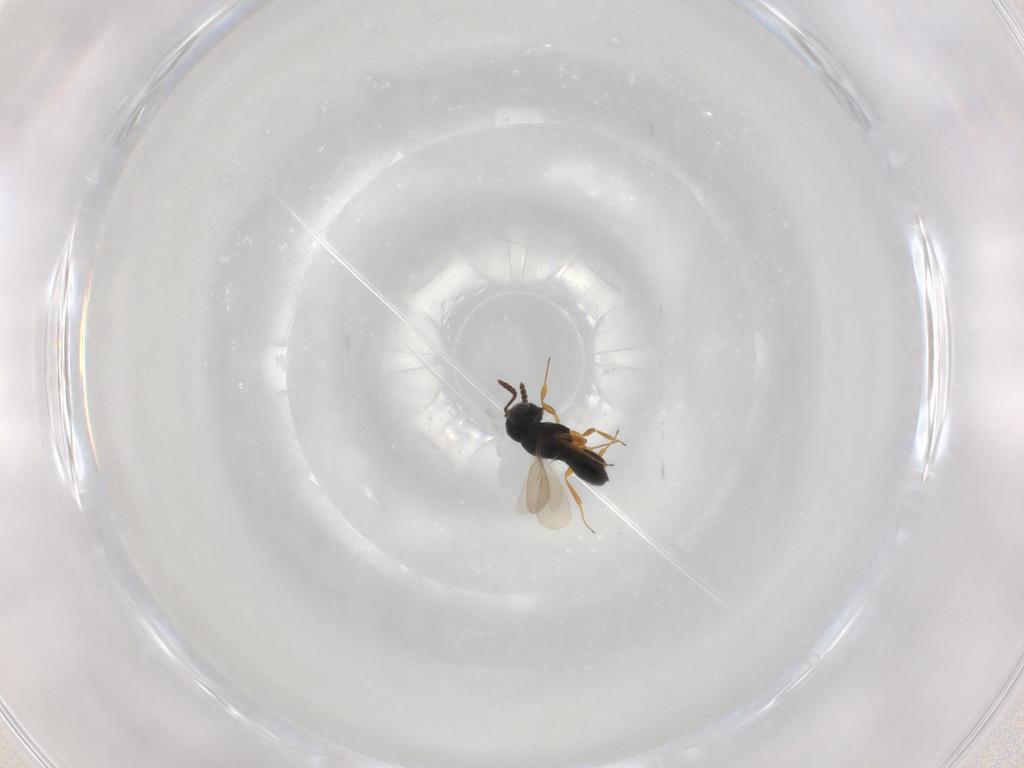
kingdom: Animalia
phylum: Arthropoda
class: Insecta
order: Hymenoptera
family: Scelionidae
